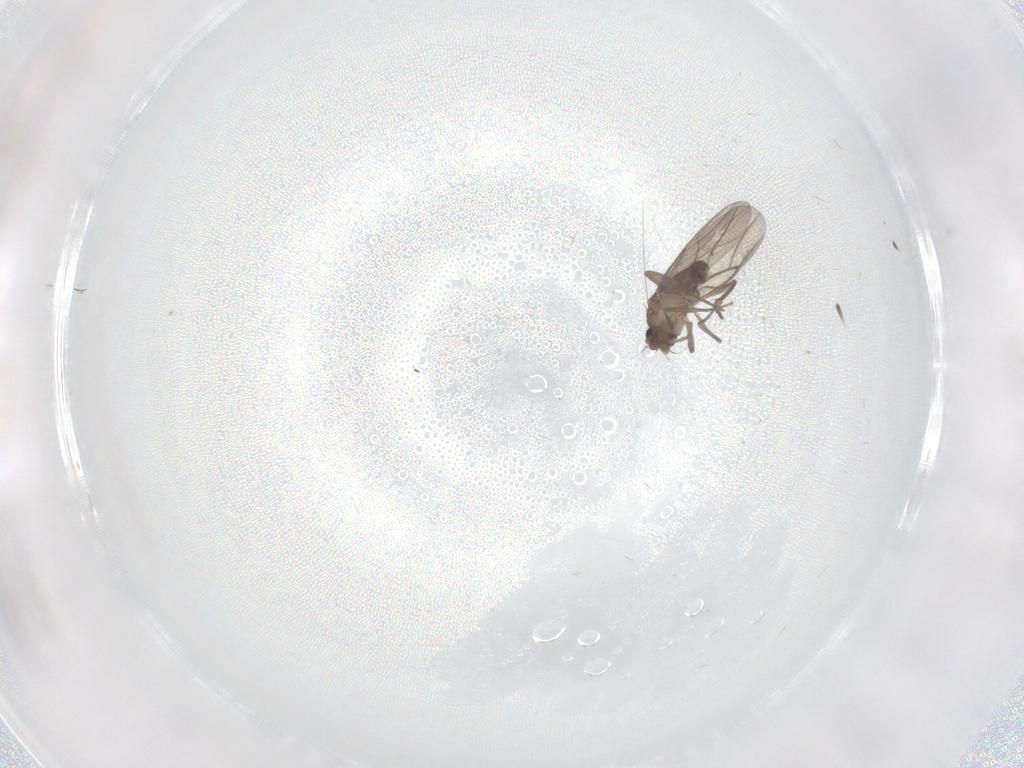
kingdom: Animalia
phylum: Arthropoda
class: Insecta
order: Diptera
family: Phoridae
